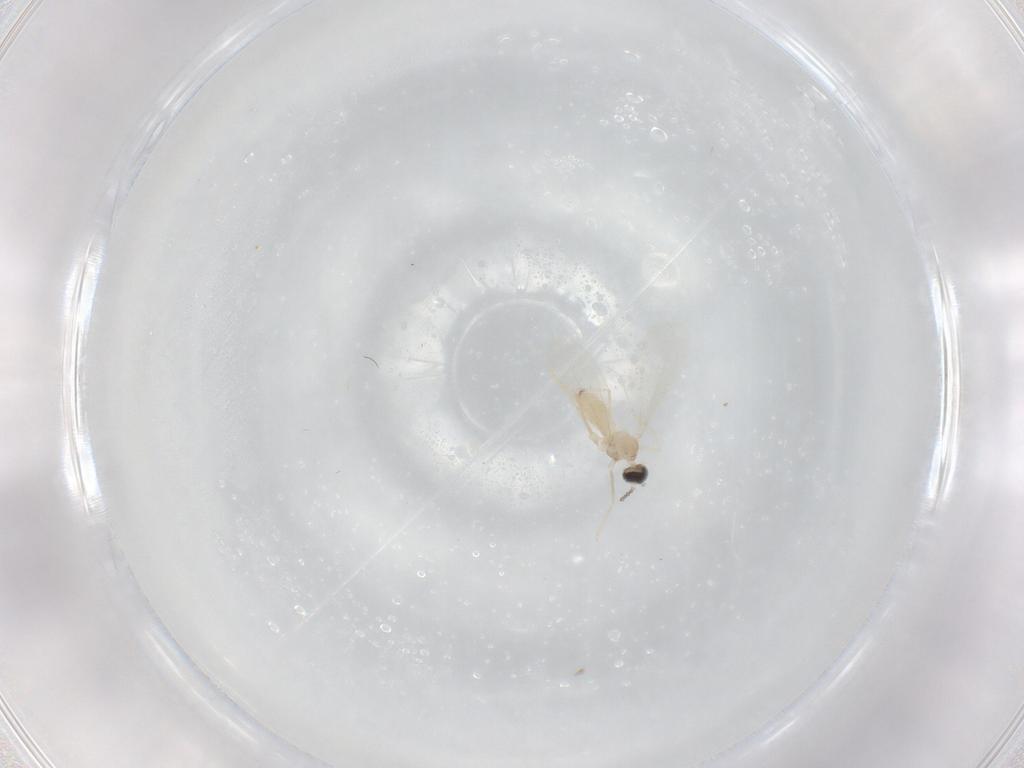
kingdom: Animalia
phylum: Arthropoda
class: Insecta
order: Diptera
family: Cecidomyiidae
